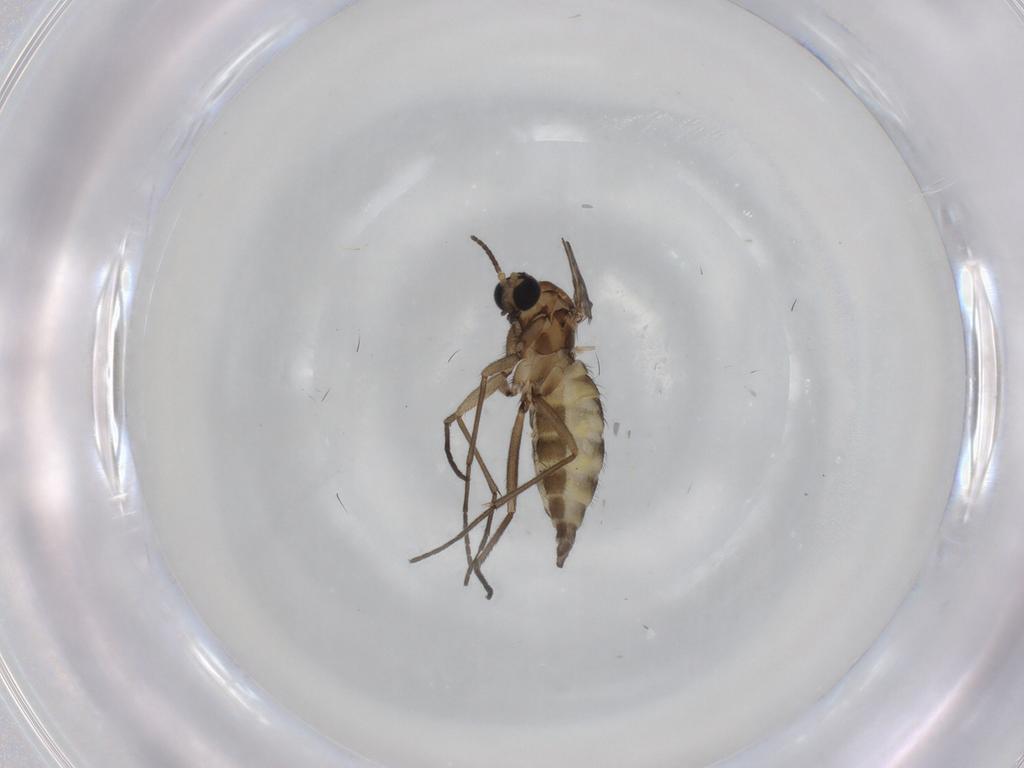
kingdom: Animalia
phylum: Arthropoda
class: Insecta
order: Diptera
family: Sciaridae
